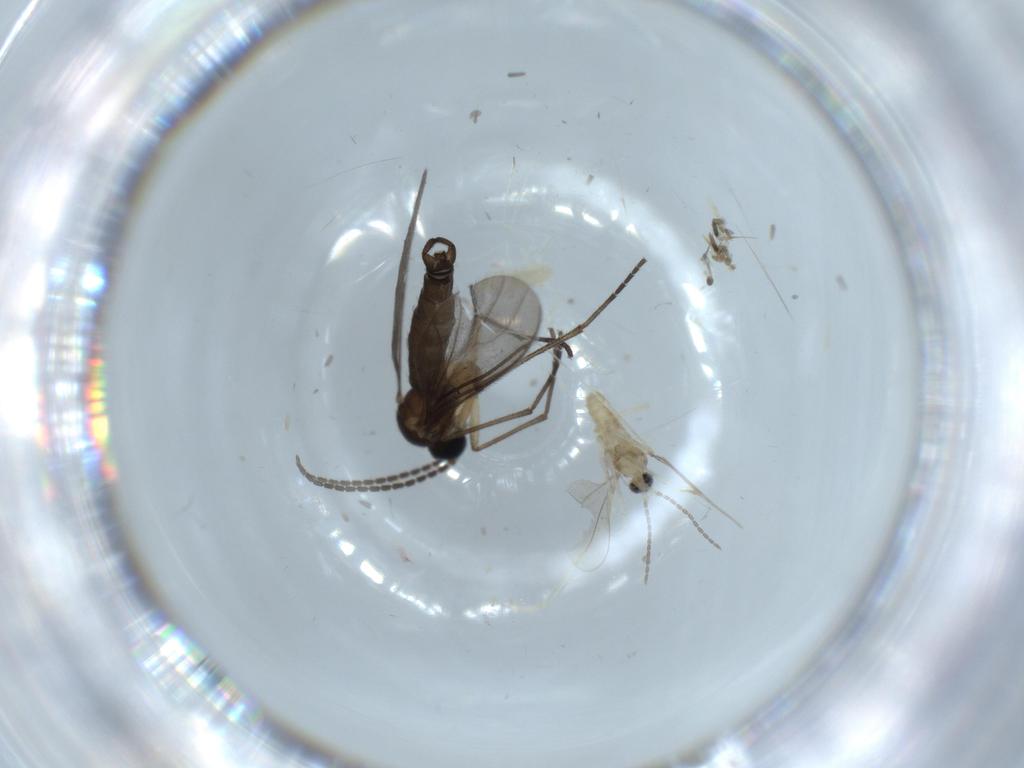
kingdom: Animalia
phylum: Arthropoda
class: Insecta
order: Diptera
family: Cecidomyiidae
